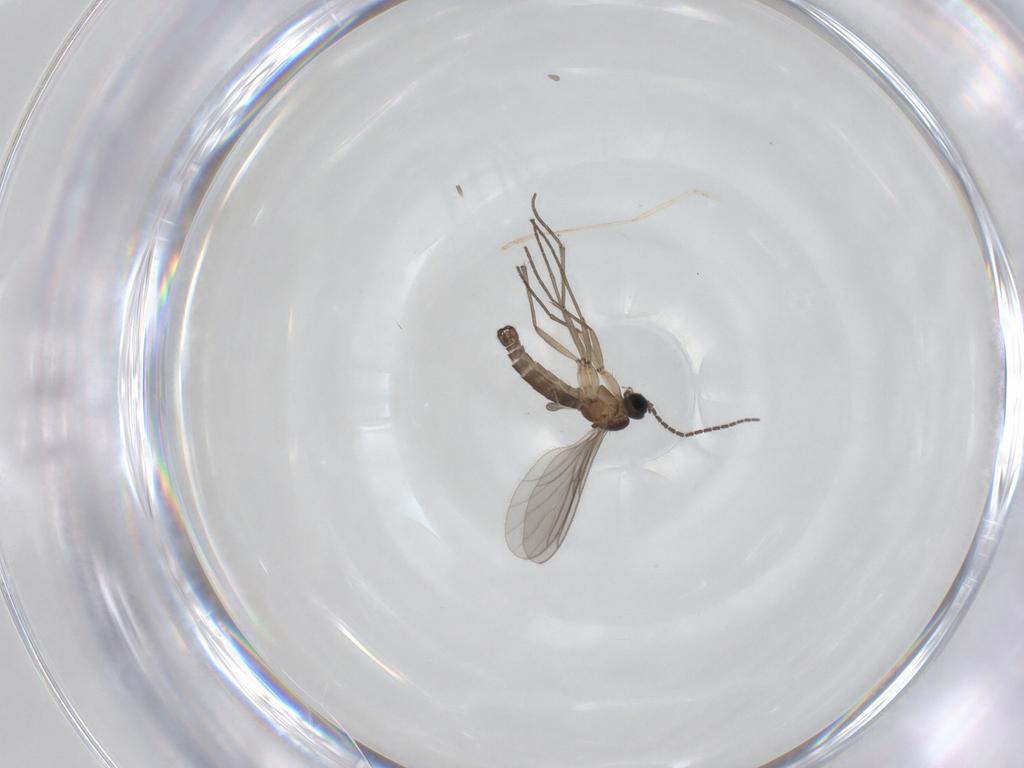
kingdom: Animalia
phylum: Arthropoda
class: Insecta
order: Diptera
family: Sciaridae
